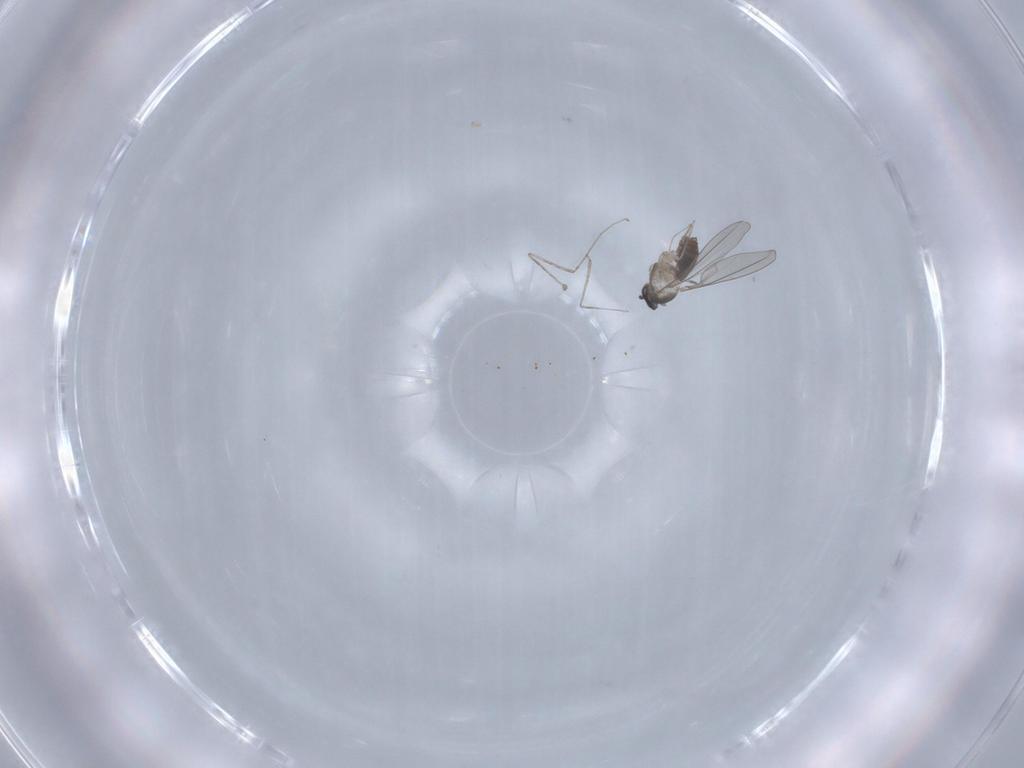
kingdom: Animalia
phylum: Arthropoda
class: Insecta
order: Diptera
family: Cecidomyiidae
